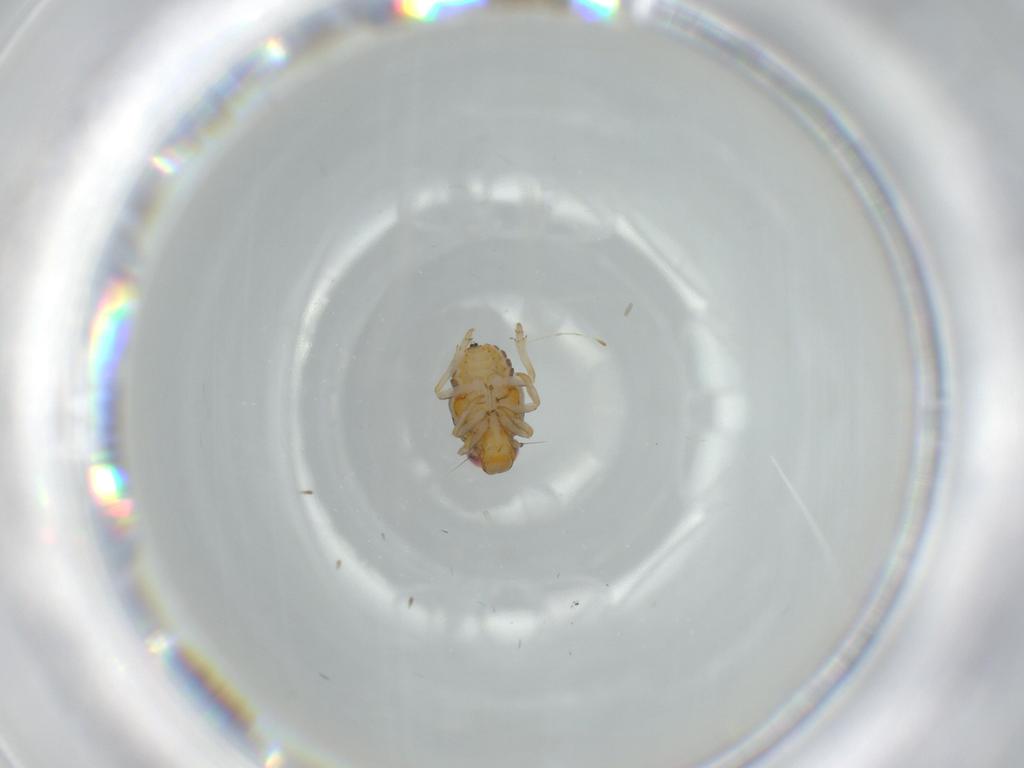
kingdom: Animalia
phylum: Arthropoda
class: Insecta
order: Hemiptera
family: Issidae
